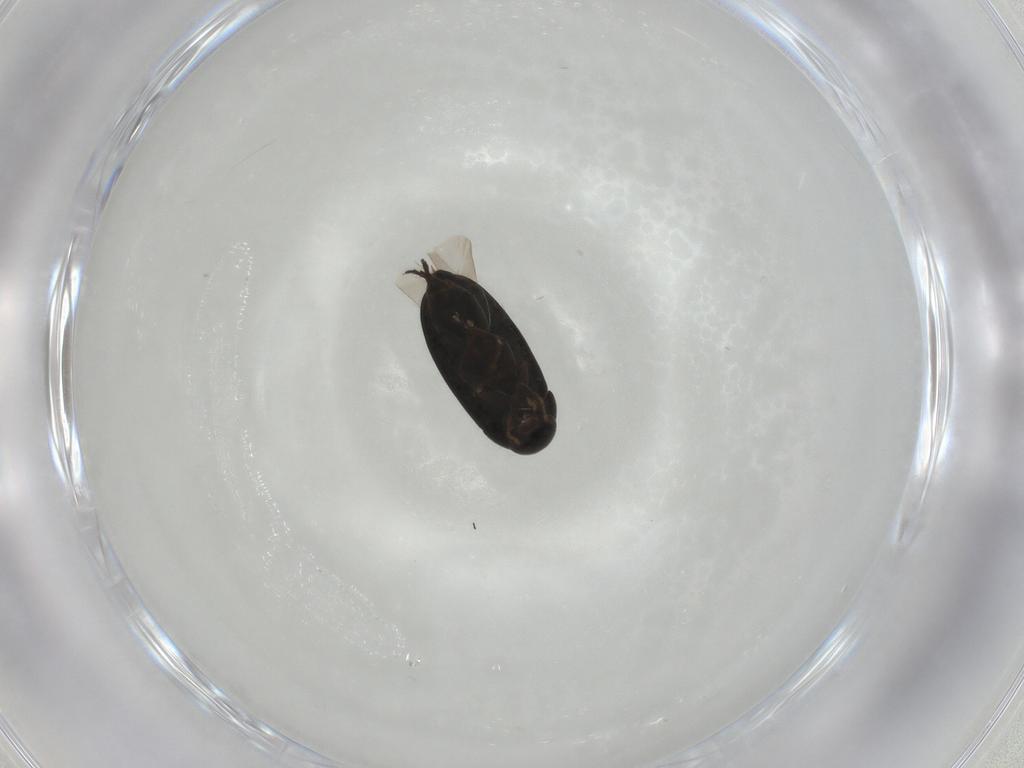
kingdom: Animalia
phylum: Arthropoda
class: Insecta
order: Coleoptera
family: Scraptiidae
